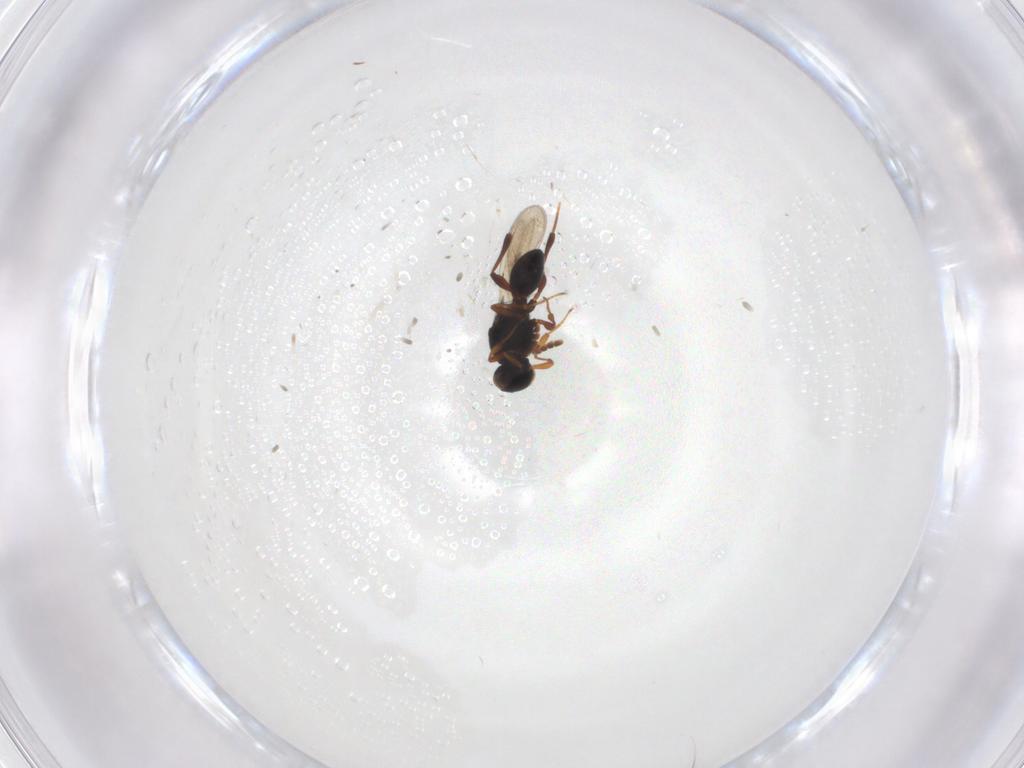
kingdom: Animalia
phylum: Arthropoda
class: Insecta
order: Hymenoptera
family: Platygastridae
